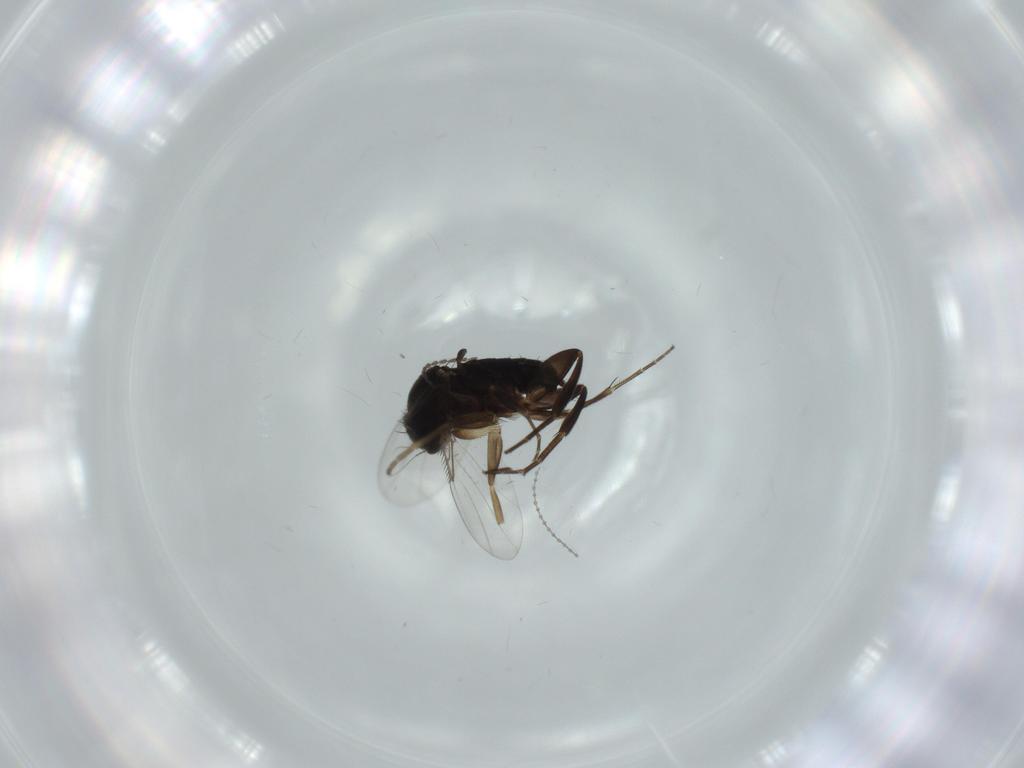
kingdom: Animalia
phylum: Arthropoda
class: Insecta
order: Diptera
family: Phoridae
